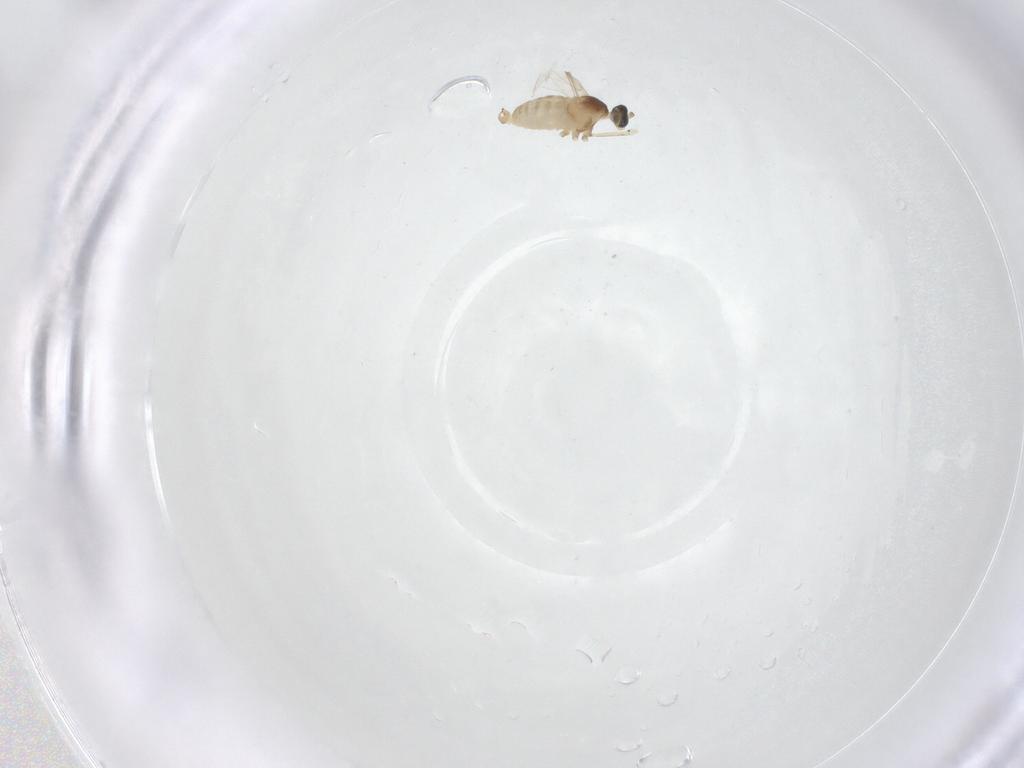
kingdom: Animalia
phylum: Arthropoda
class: Insecta
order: Diptera
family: Cecidomyiidae
